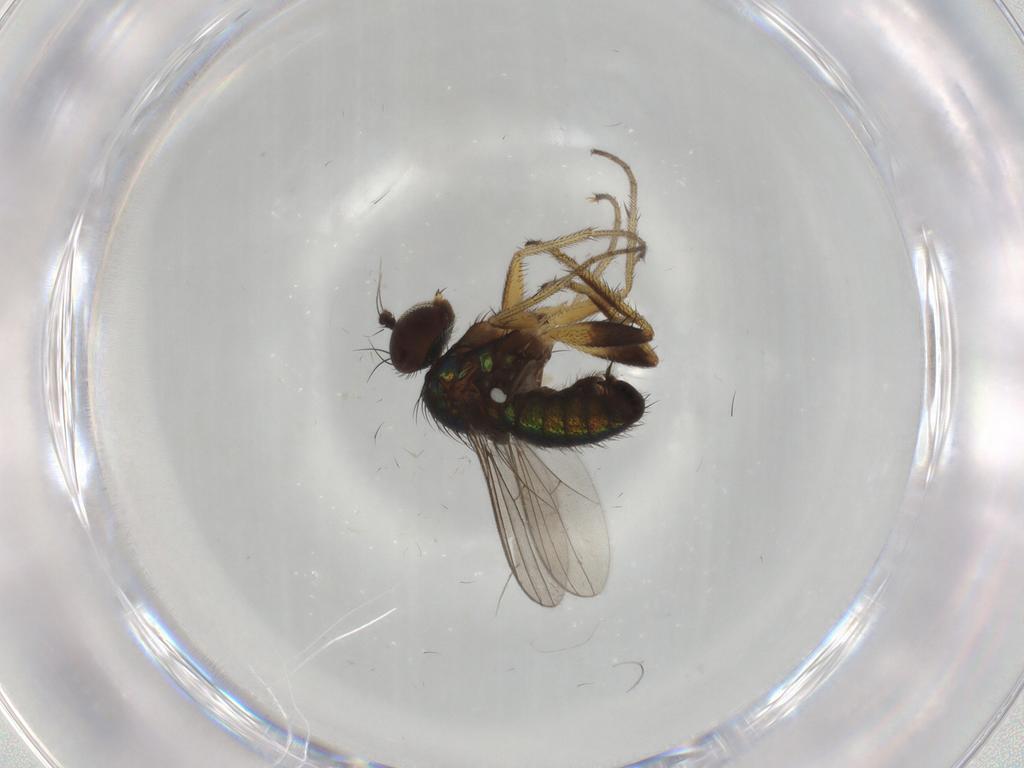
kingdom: Animalia
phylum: Arthropoda
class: Insecta
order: Diptera
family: Dolichopodidae
